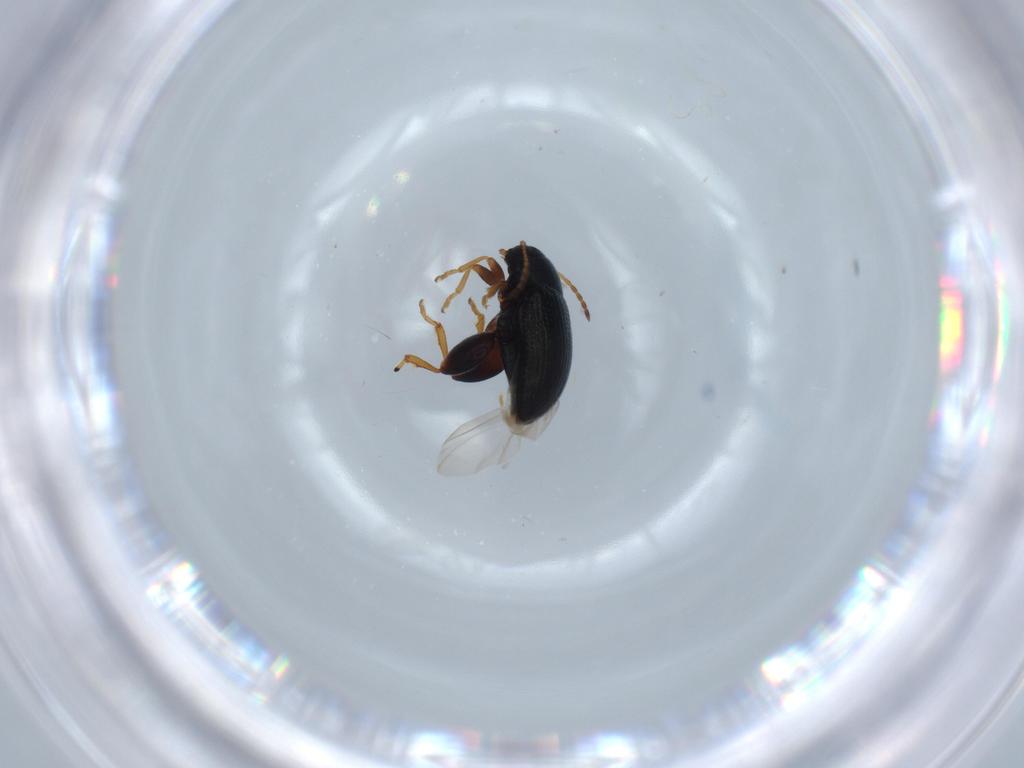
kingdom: Animalia
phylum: Arthropoda
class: Insecta
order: Coleoptera
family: Chrysomelidae
